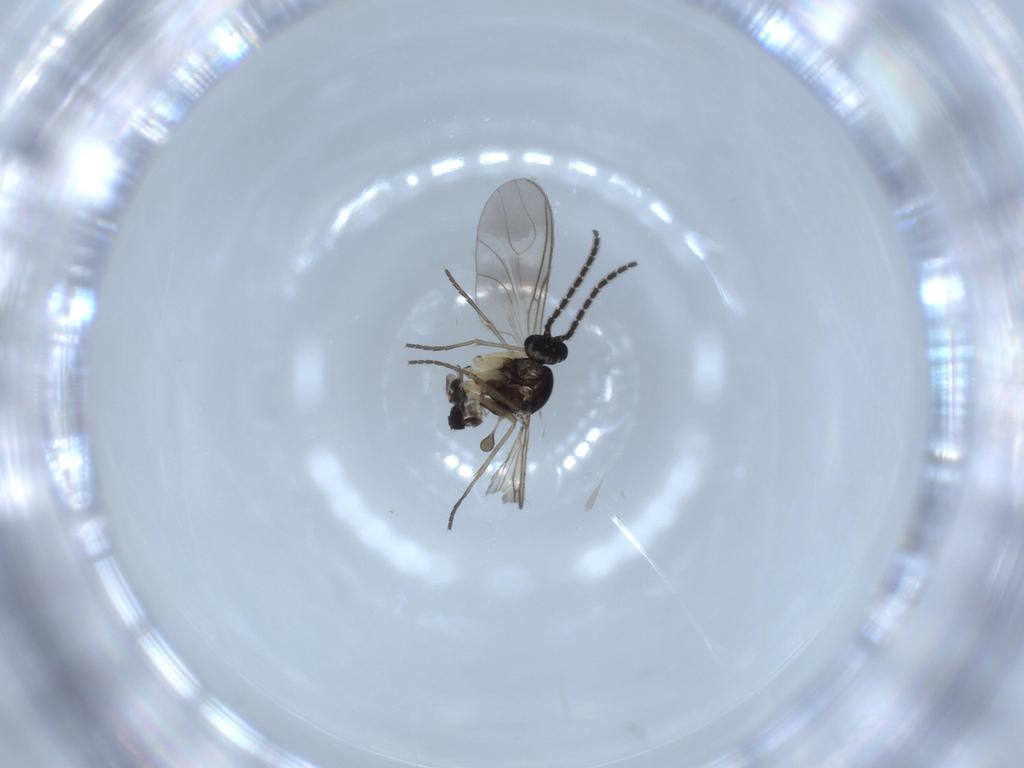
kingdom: Animalia
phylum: Arthropoda
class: Insecta
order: Diptera
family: Sciaridae
